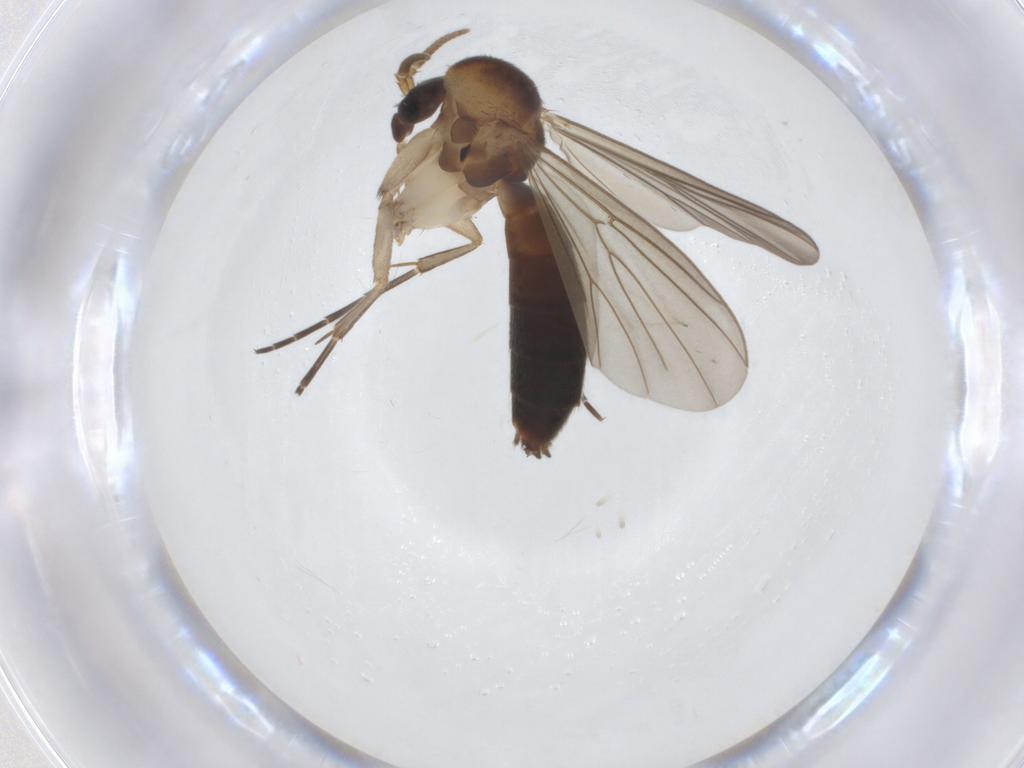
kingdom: Animalia
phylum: Arthropoda
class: Insecta
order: Diptera
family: Mycetophilidae
